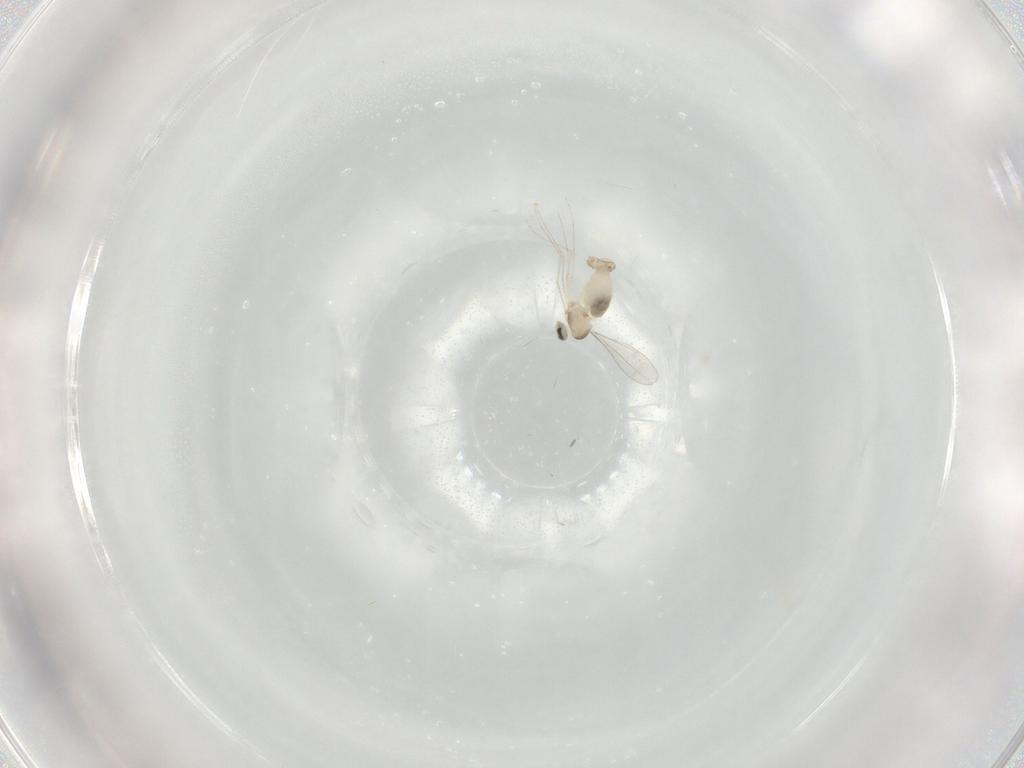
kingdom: Animalia
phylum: Arthropoda
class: Insecta
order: Diptera
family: Cecidomyiidae
